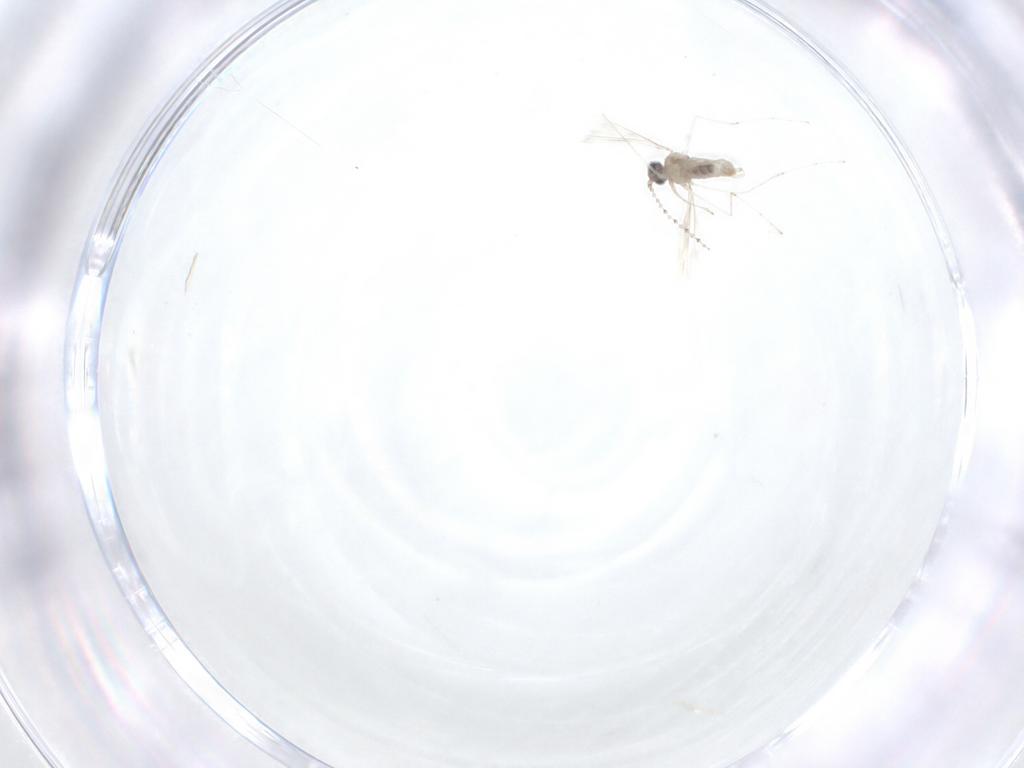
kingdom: Animalia
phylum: Arthropoda
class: Insecta
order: Diptera
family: Cecidomyiidae
